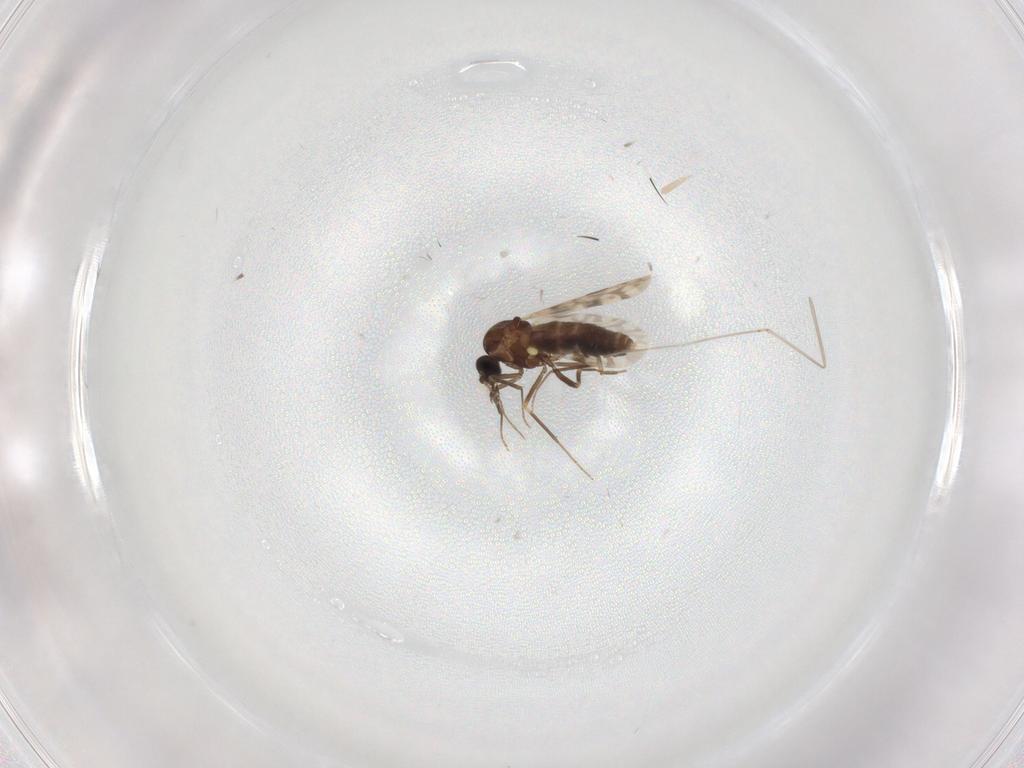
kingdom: Animalia
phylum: Arthropoda
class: Insecta
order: Diptera
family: Ceratopogonidae
